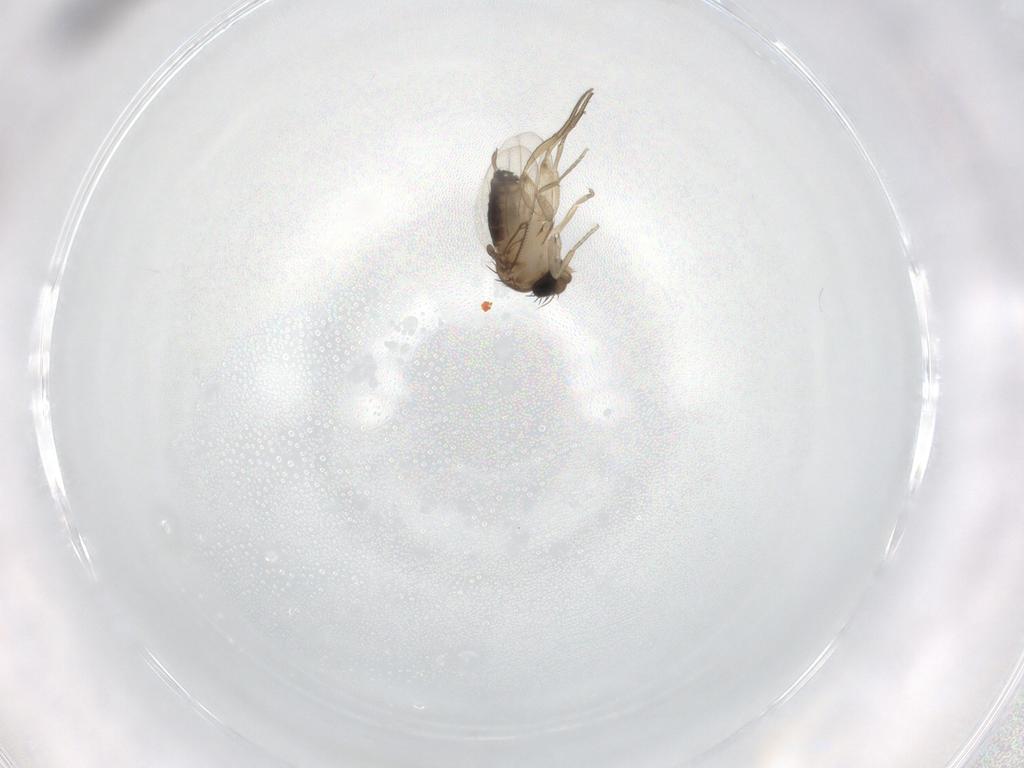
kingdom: Animalia
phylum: Arthropoda
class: Insecta
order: Diptera
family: Phoridae
